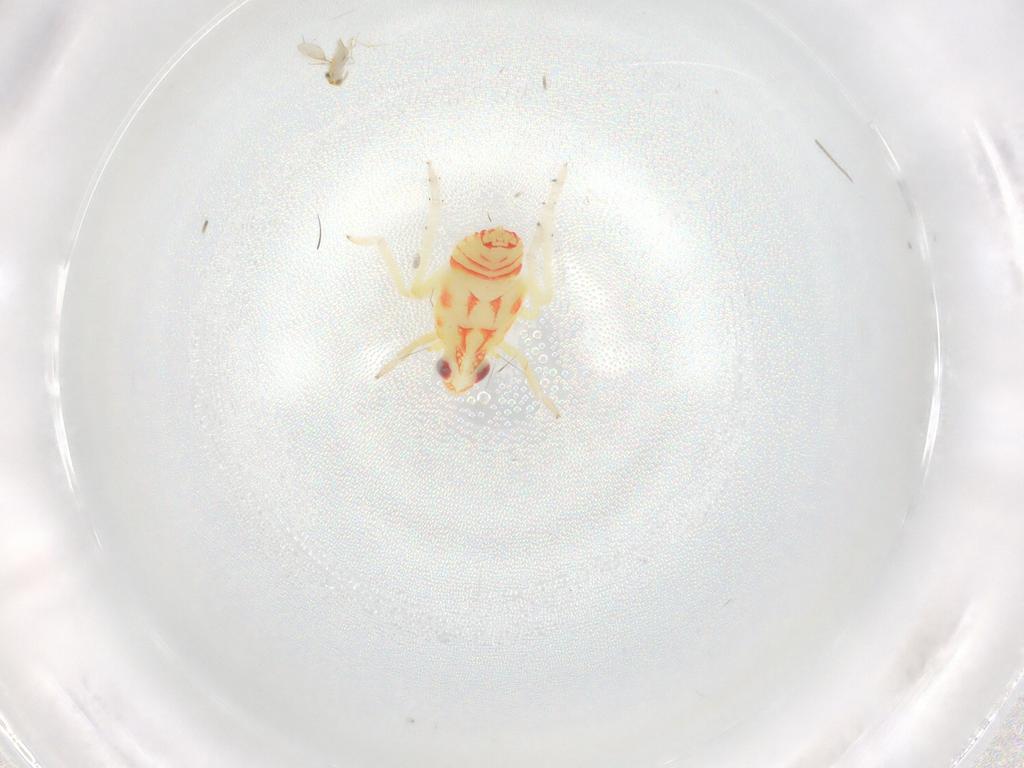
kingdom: Animalia
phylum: Arthropoda
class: Insecta
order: Hymenoptera
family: Aphelinidae
